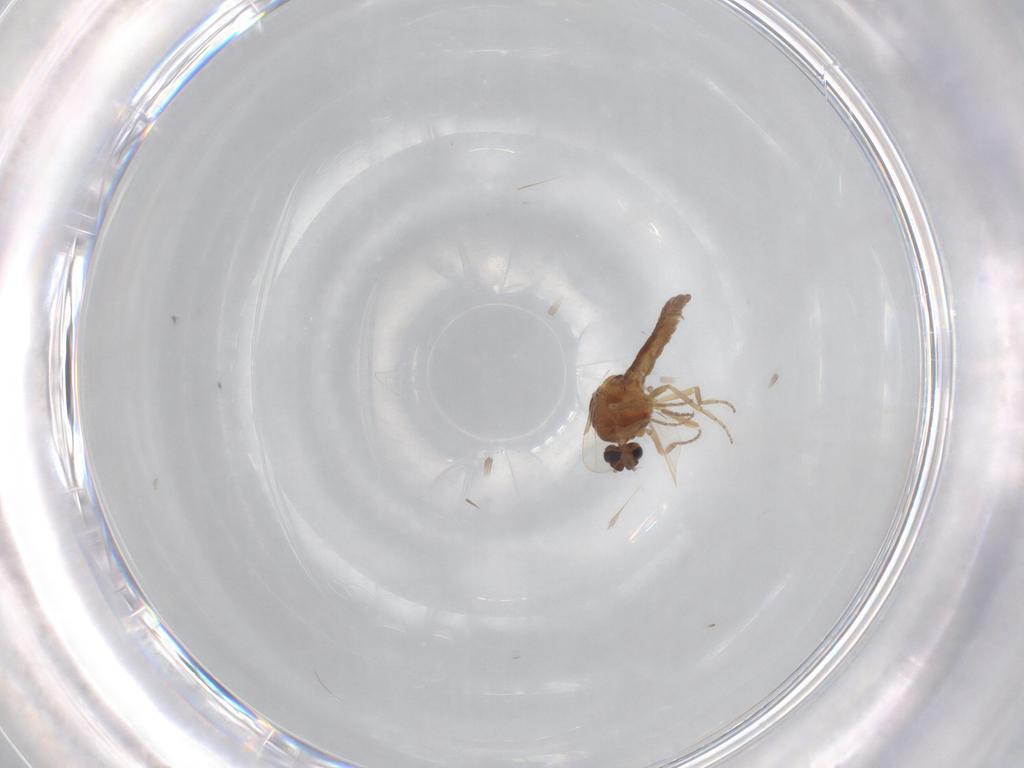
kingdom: Animalia
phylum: Arthropoda
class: Insecta
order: Diptera
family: Ceratopogonidae
